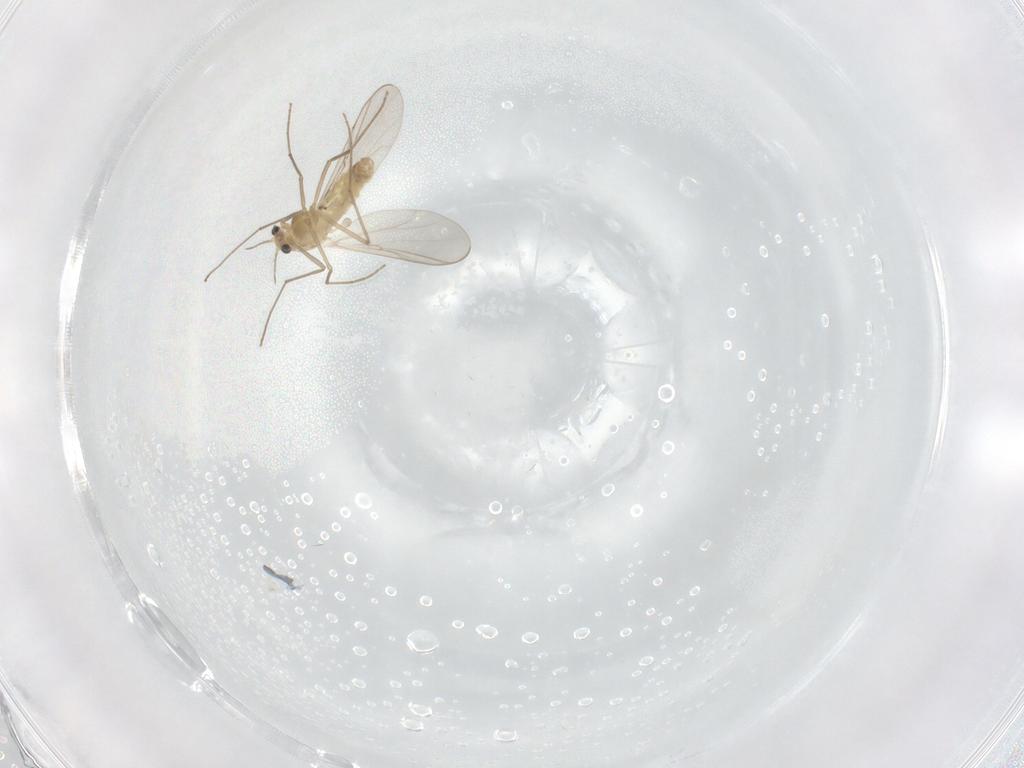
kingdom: Animalia
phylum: Arthropoda
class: Insecta
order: Diptera
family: Chironomidae
